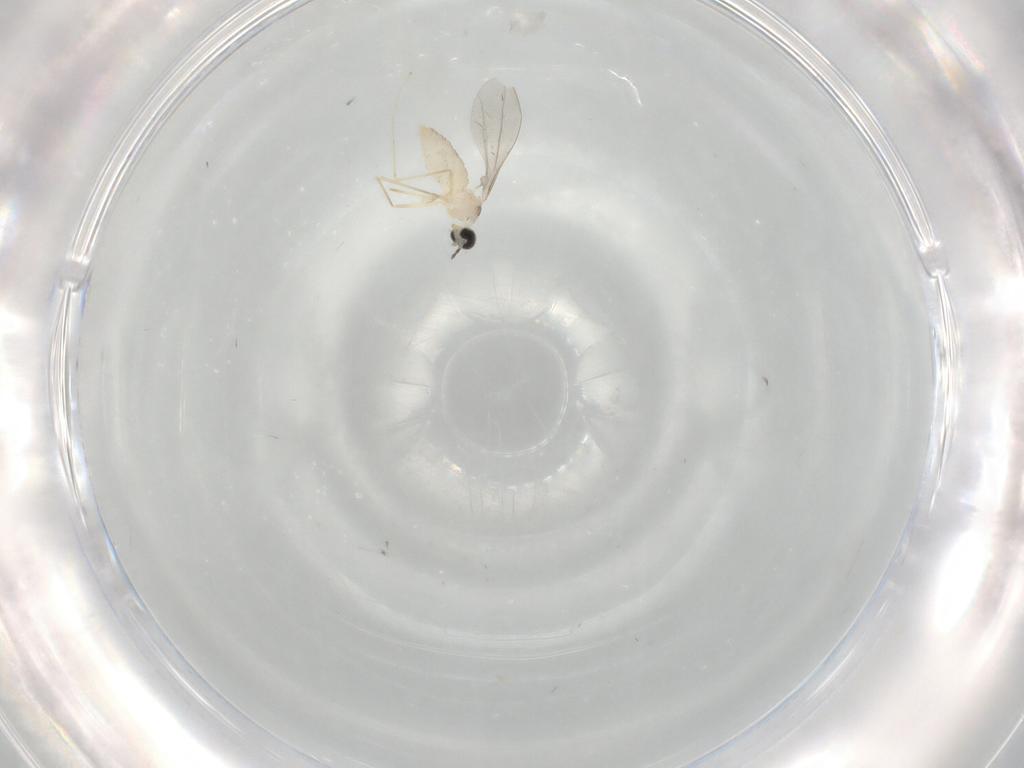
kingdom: Animalia
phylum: Arthropoda
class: Insecta
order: Diptera
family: Cecidomyiidae
